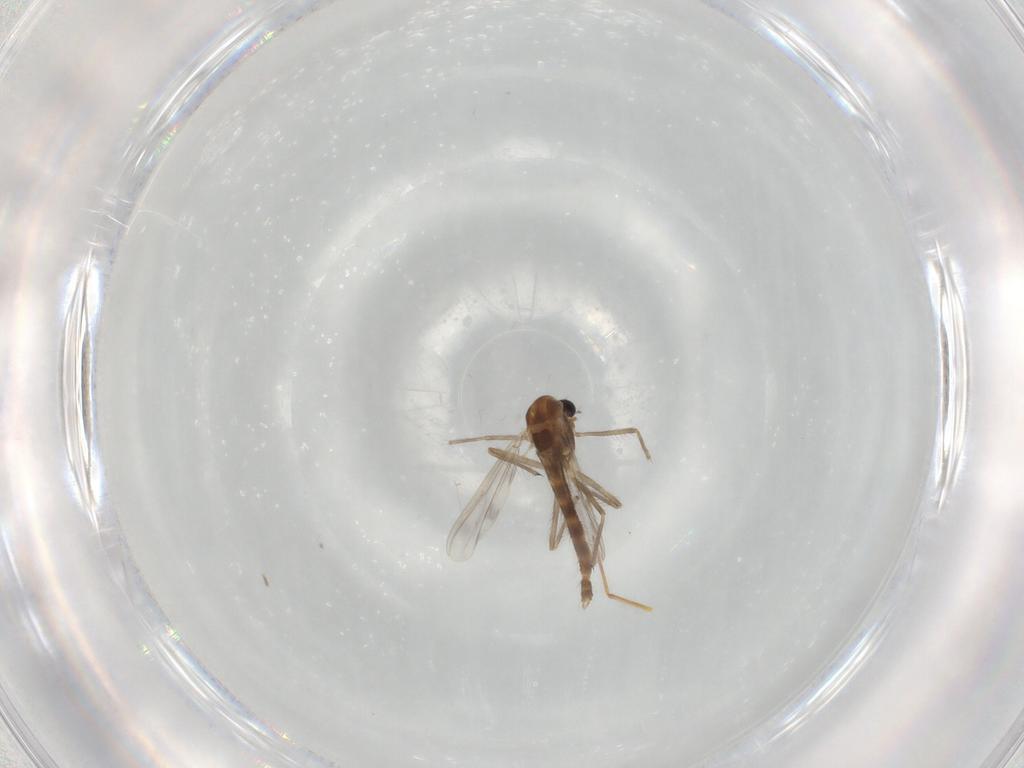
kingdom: Animalia
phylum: Arthropoda
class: Insecta
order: Diptera
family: Chironomidae
